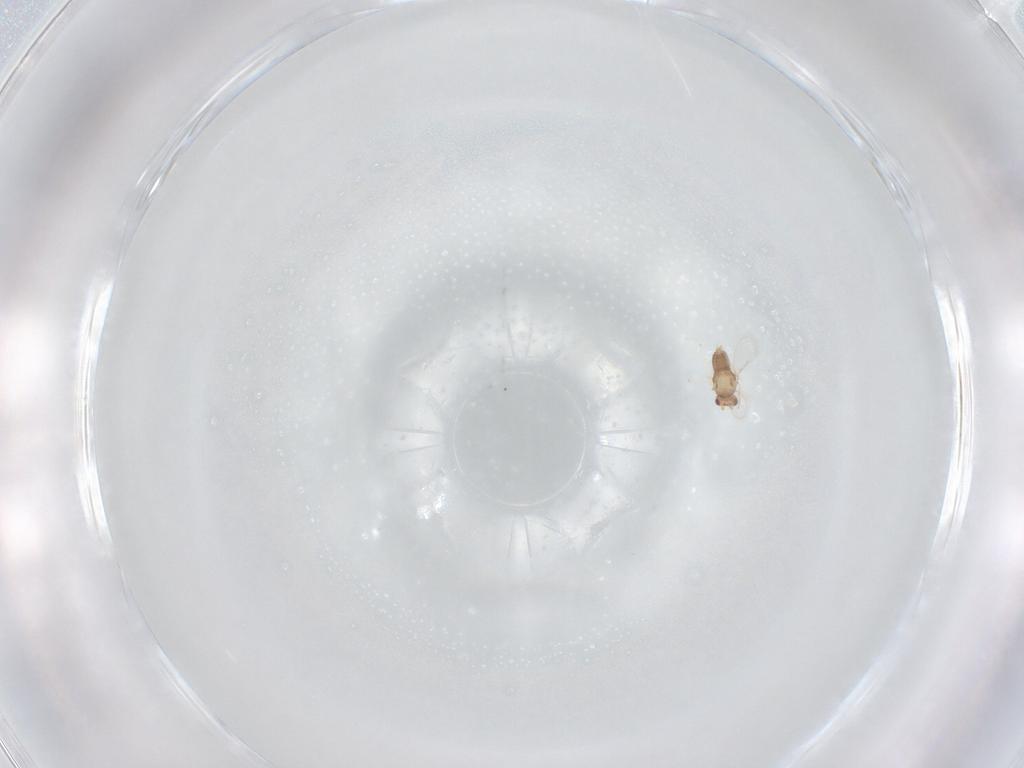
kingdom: Animalia
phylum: Arthropoda
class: Insecta
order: Hymenoptera
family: Aphelinidae
